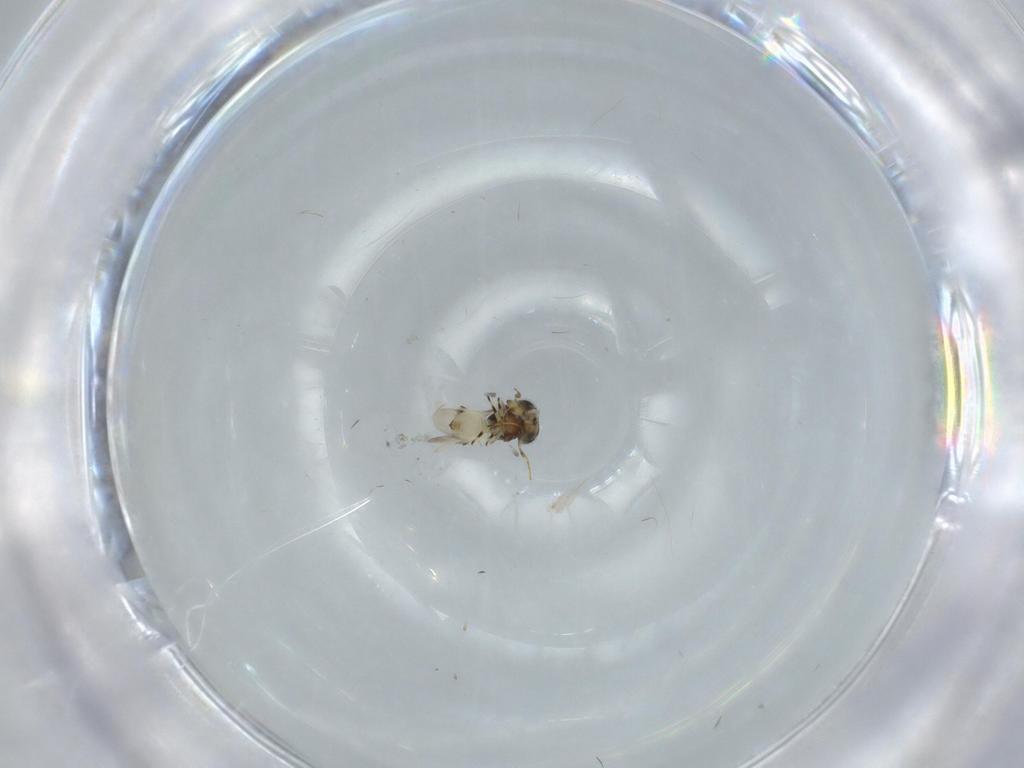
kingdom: Animalia
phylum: Arthropoda
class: Insecta
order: Hymenoptera
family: Scelionidae
